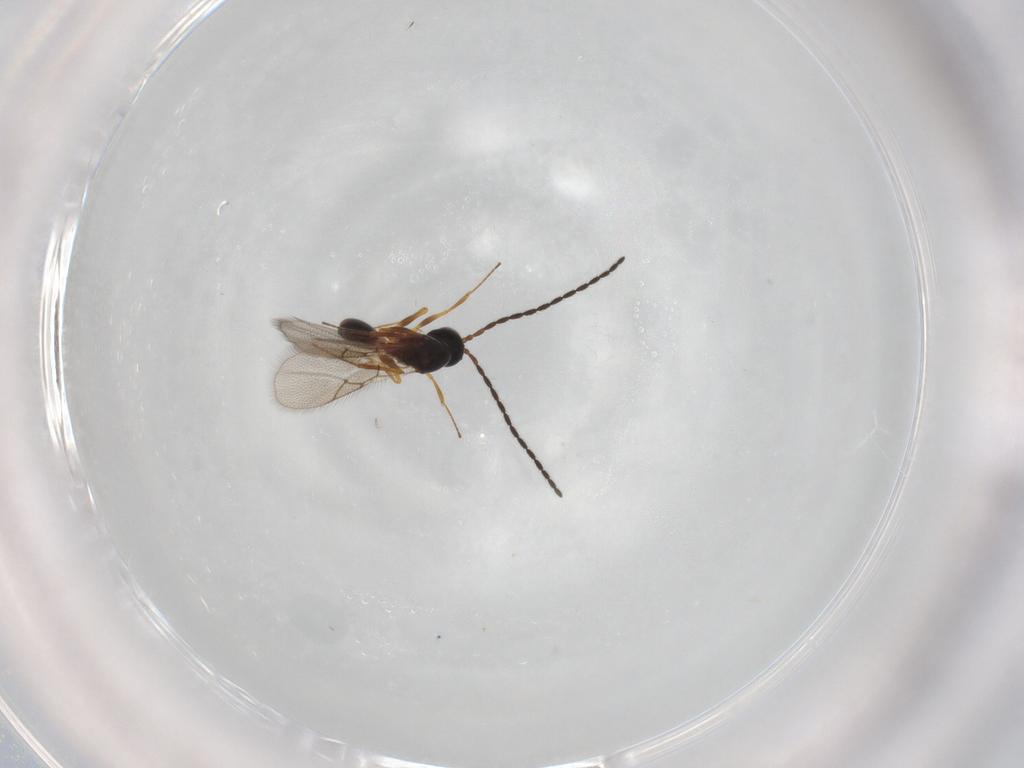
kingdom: Animalia
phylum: Arthropoda
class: Insecta
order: Hymenoptera
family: Figitidae
